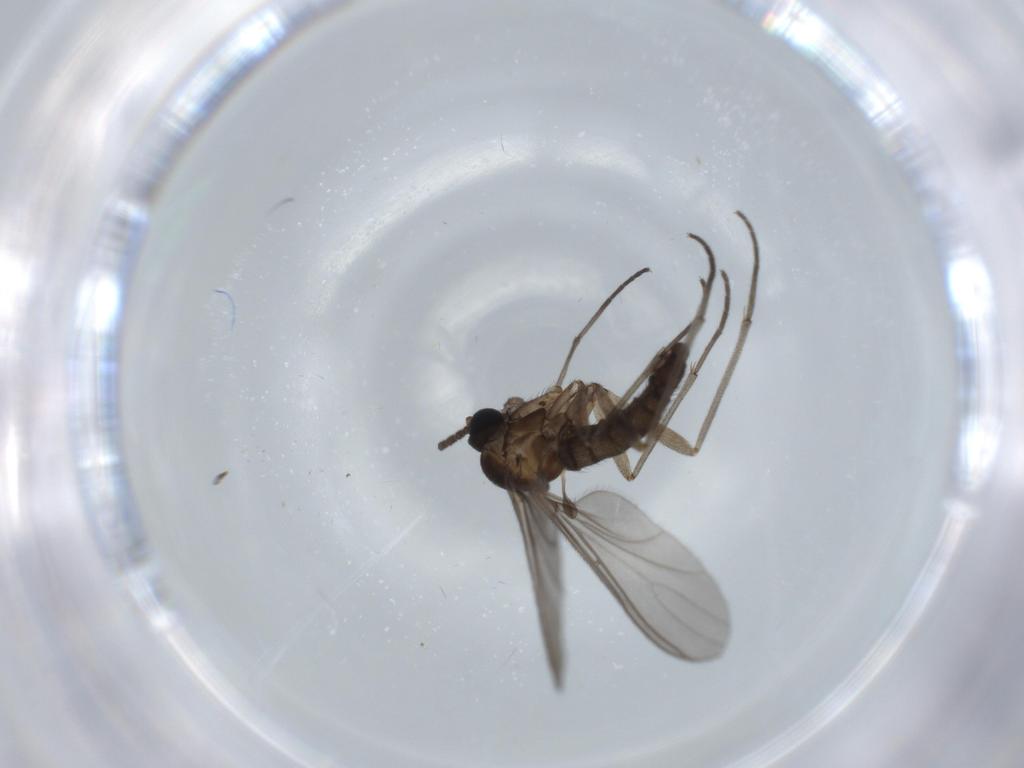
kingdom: Animalia
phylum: Arthropoda
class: Insecta
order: Diptera
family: Sciaridae
